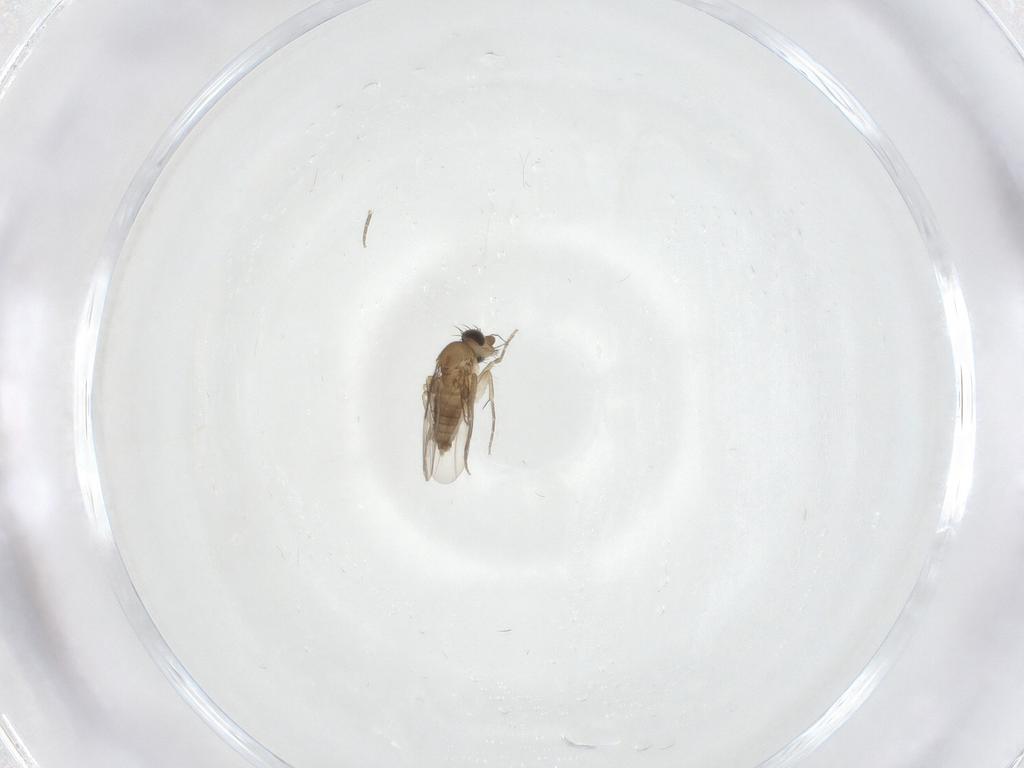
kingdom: Animalia
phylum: Arthropoda
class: Insecta
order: Diptera
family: Phoridae
